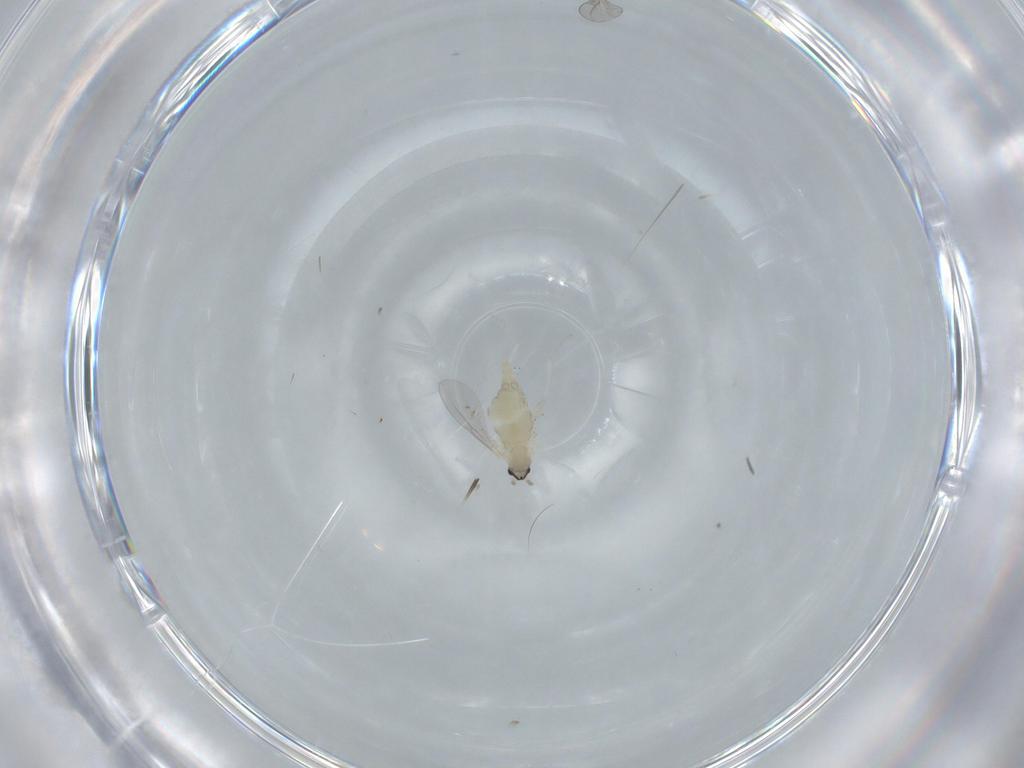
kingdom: Animalia
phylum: Arthropoda
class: Insecta
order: Diptera
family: Cecidomyiidae
